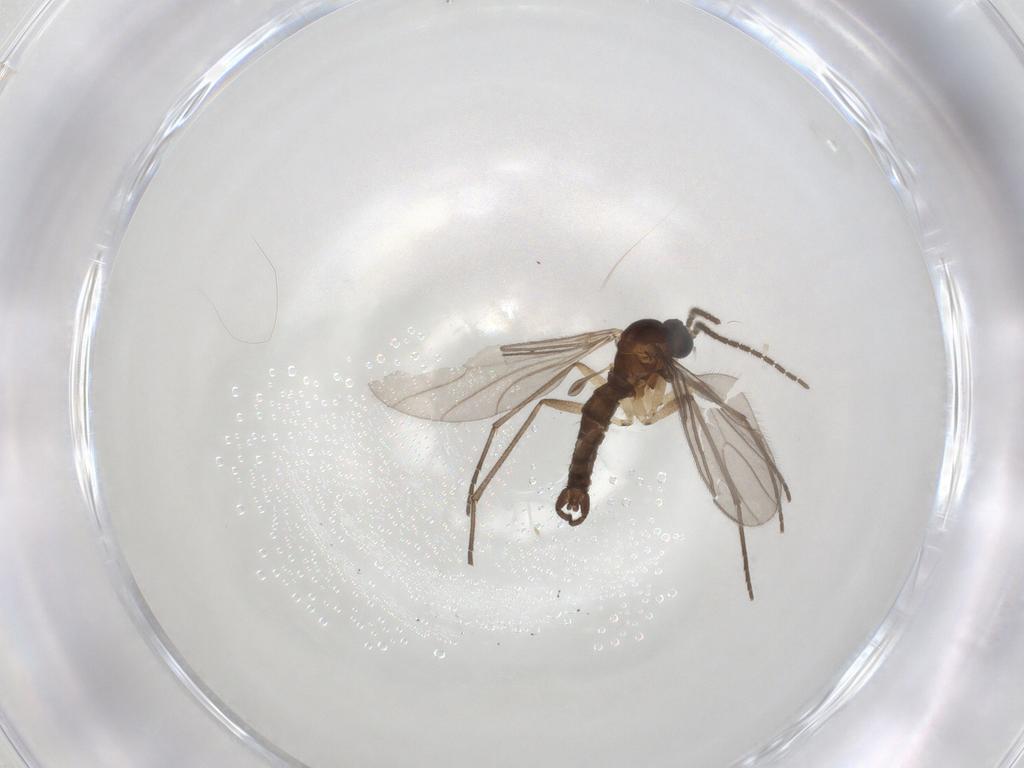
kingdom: Animalia
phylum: Arthropoda
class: Insecta
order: Diptera
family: Sciaridae
